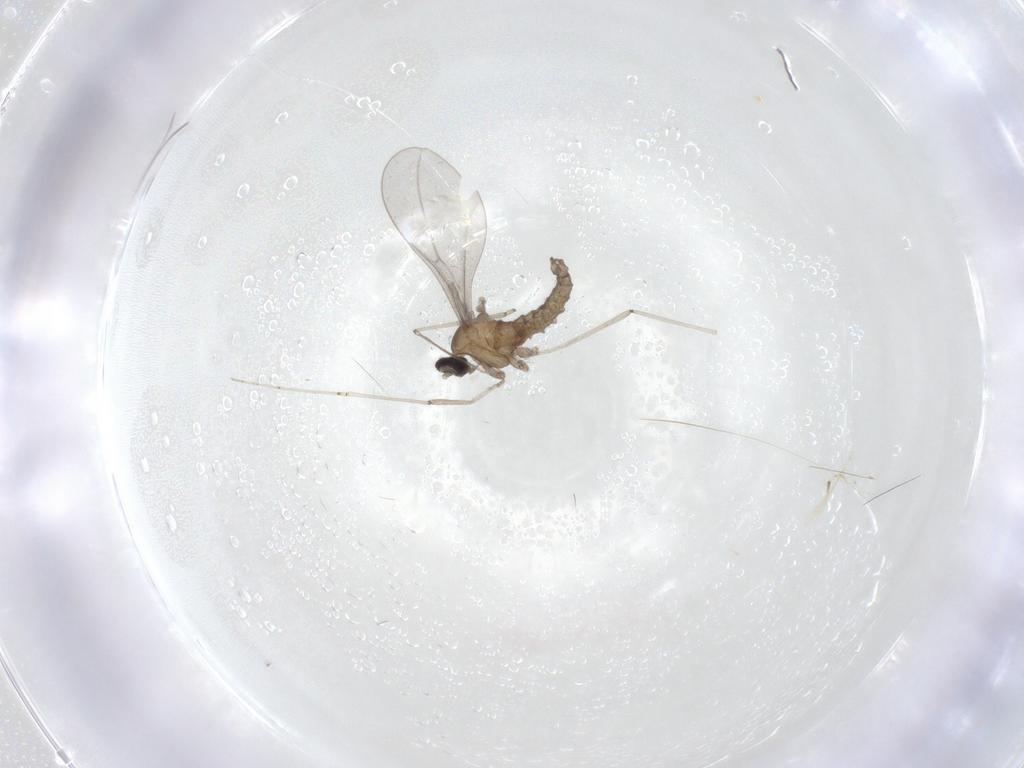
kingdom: Animalia
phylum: Arthropoda
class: Insecta
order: Diptera
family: Cecidomyiidae
